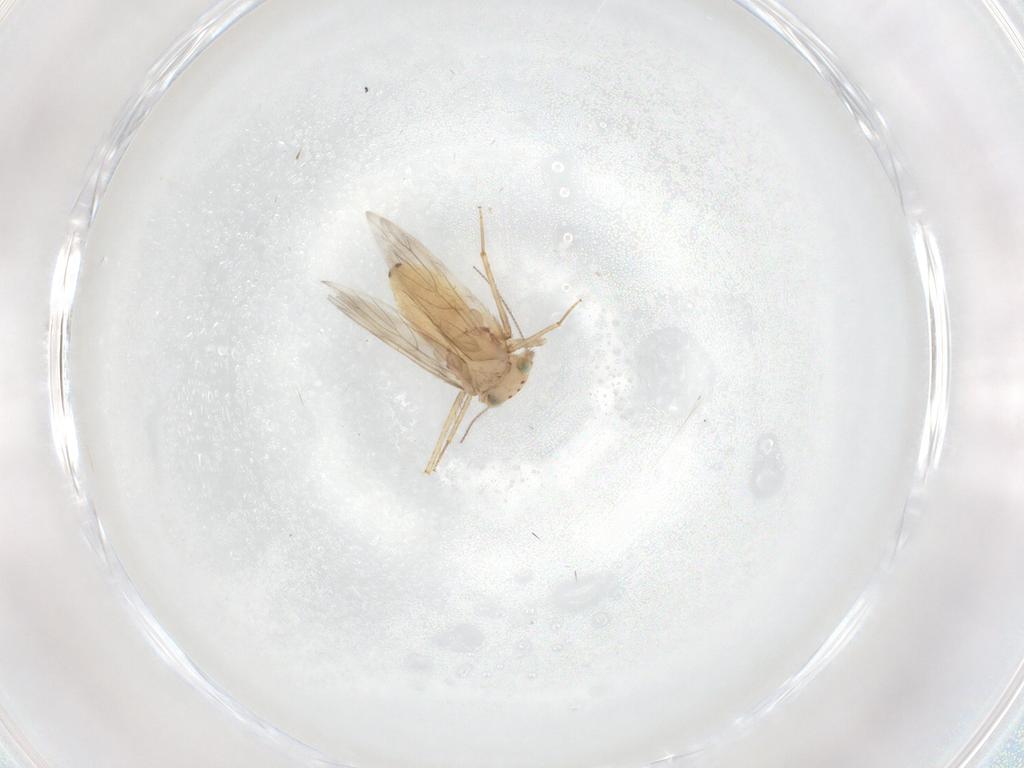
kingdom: Animalia
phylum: Arthropoda
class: Insecta
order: Psocodea
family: Lepidopsocidae
